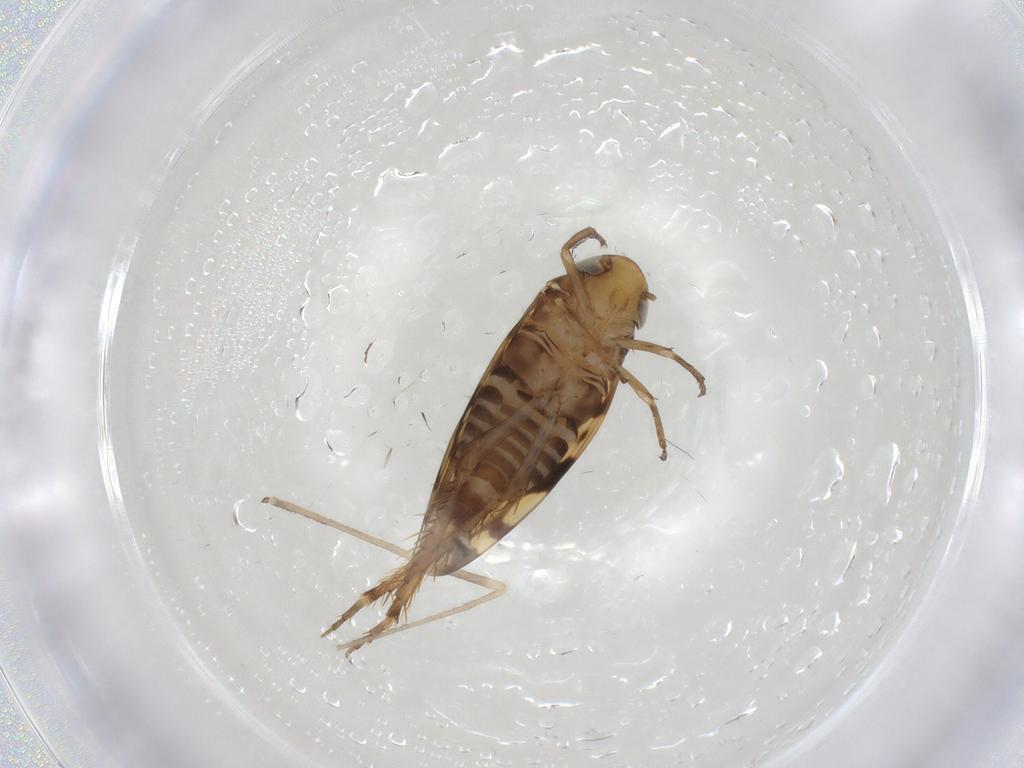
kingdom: Animalia
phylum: Arthropoda
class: Insecta
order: Hemiptera
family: Cicadellidae
